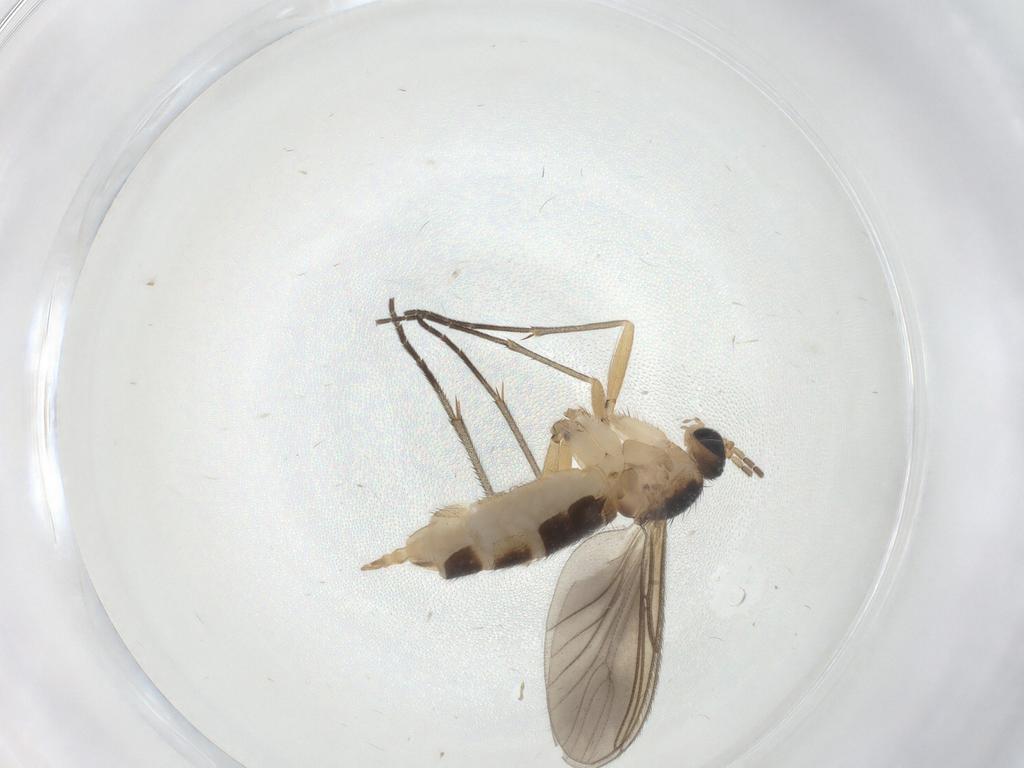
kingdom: Animalia
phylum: Arthropoda
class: Insecta
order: Diptera
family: Sciaridae
